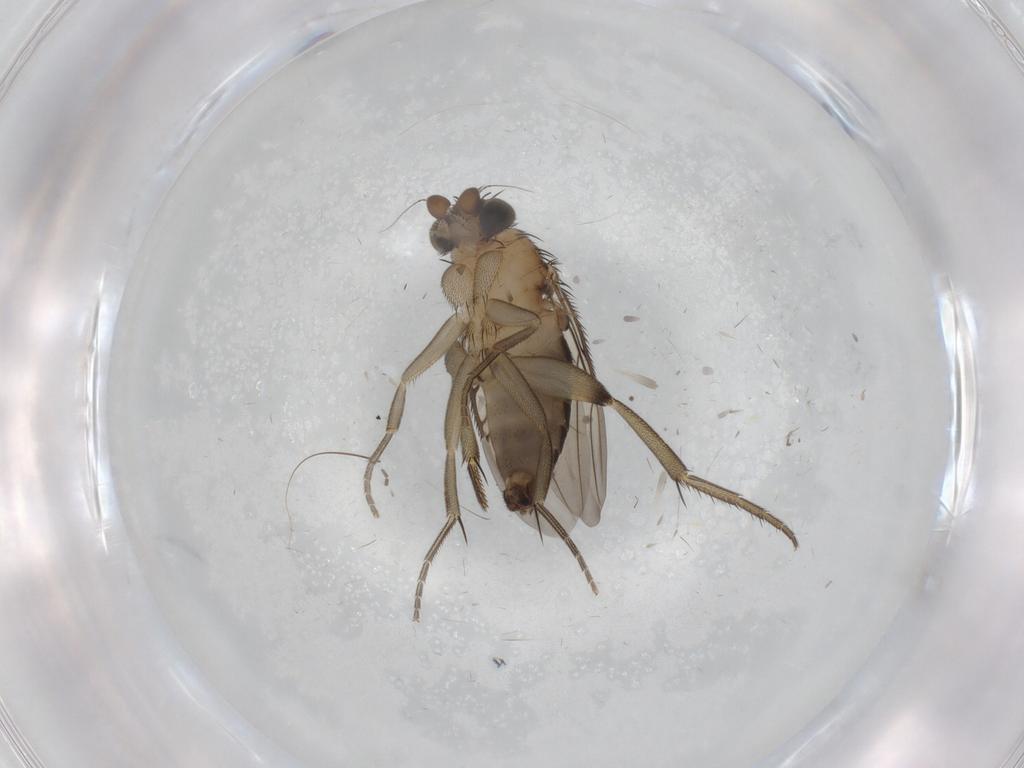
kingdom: Animalia
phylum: Arthropoda
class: Insecta
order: Diptera
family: Phoridae
